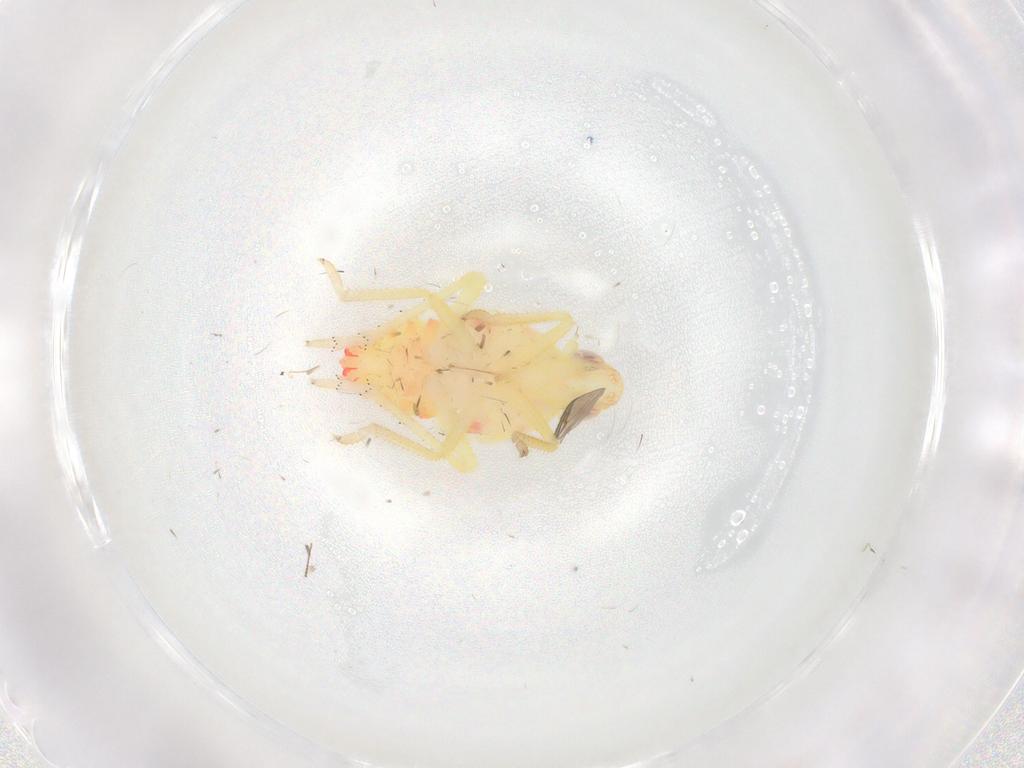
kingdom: Animalia
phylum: Arthropoda
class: Insecta
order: Hemiptera
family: Tropiduchidae
